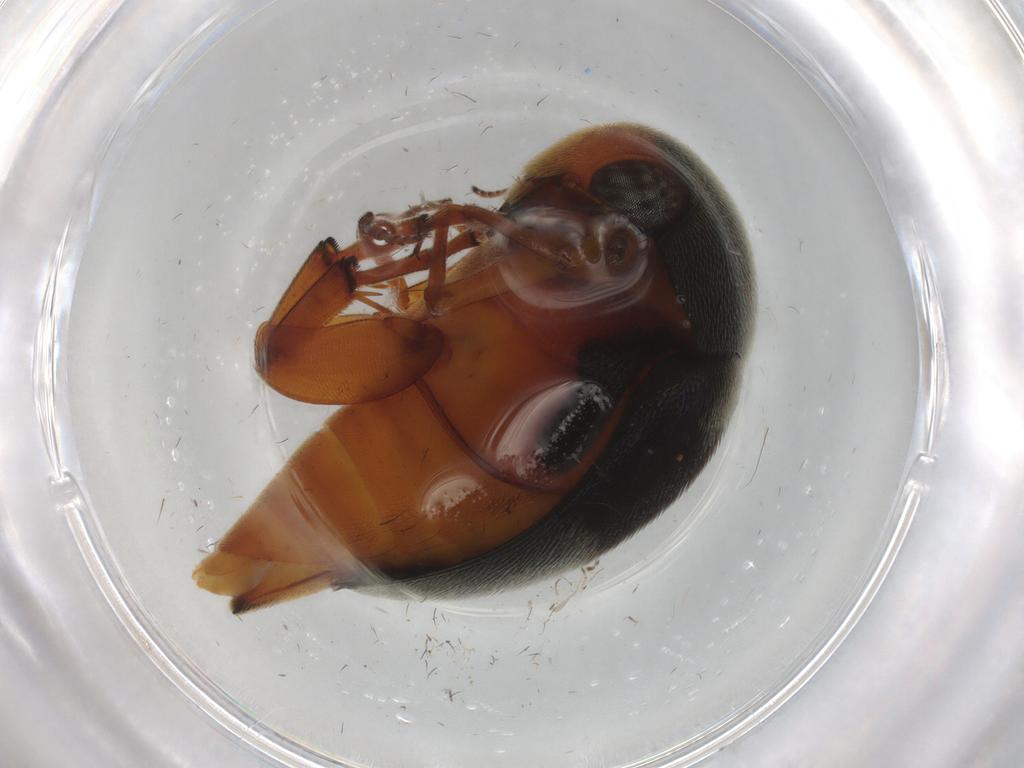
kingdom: Animalia
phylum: Arthropoda
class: Insecta
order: Coleoptera
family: Mordellidae
